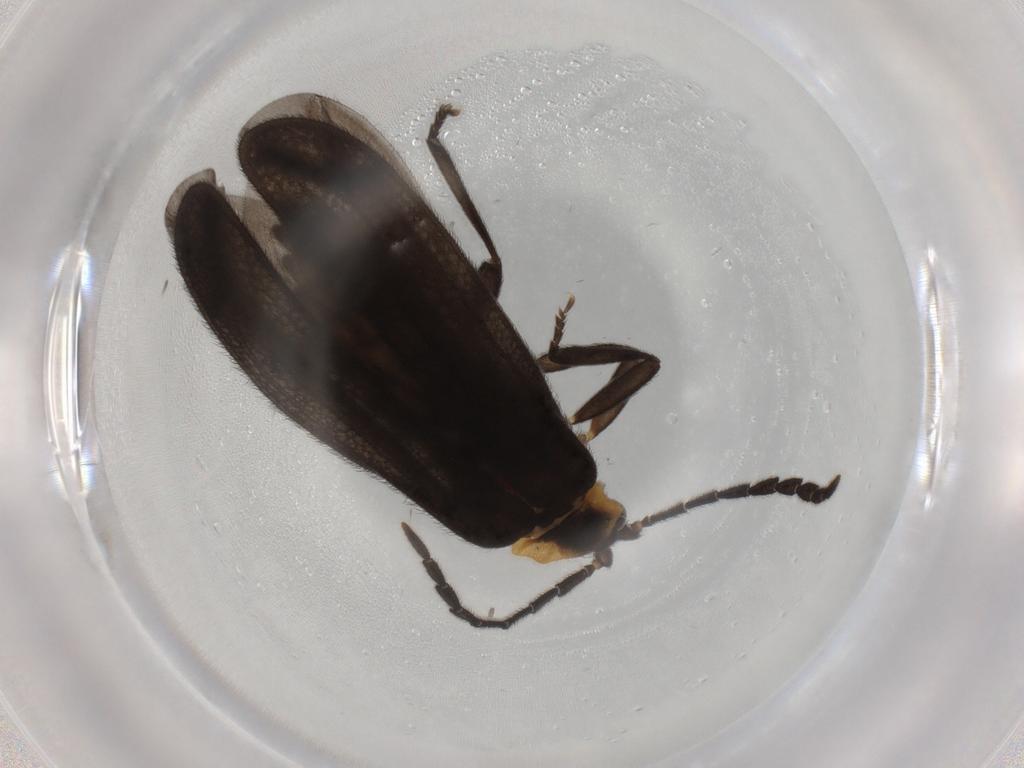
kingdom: Animalia
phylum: Arthropoda
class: Insecta
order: Coleoptera
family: Lycidae
